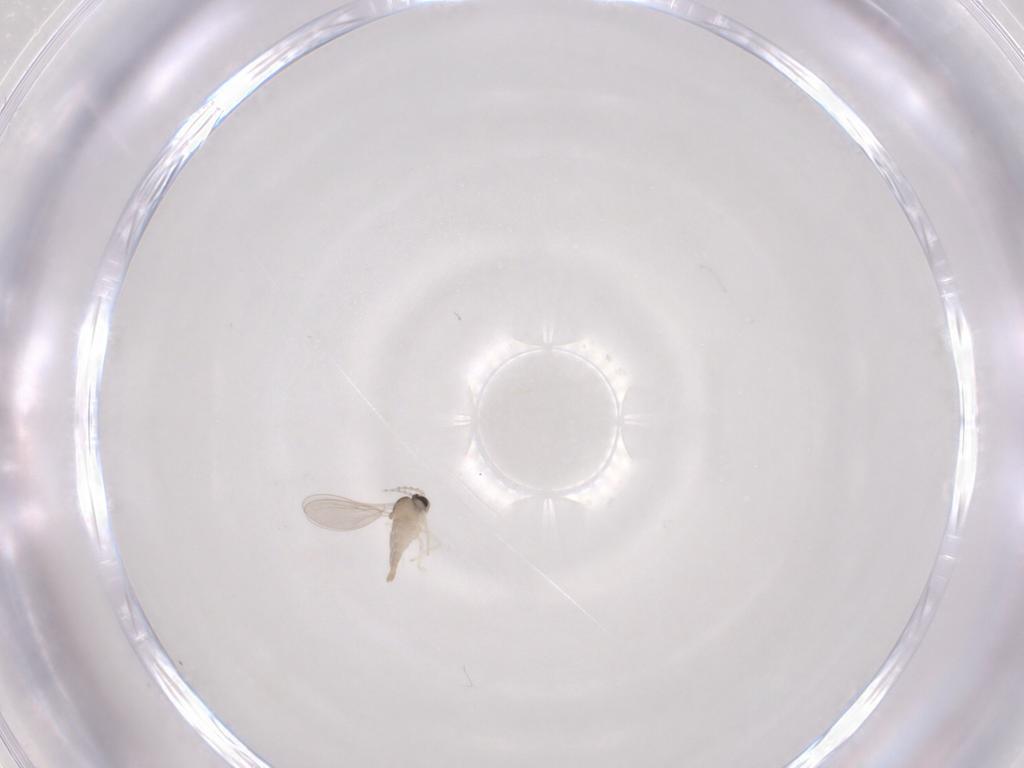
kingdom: Animalia
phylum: Arthropoda
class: Insecta
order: Diptera
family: Cecidomyiidae
